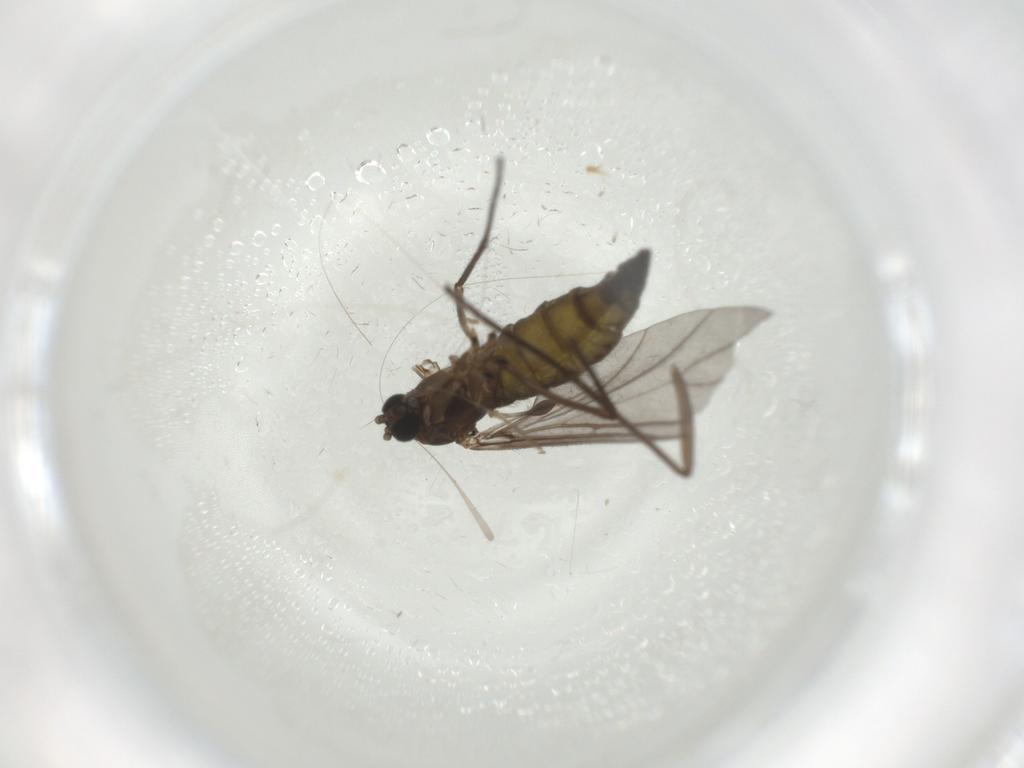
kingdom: Animalia
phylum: Arthropoda
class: Insecta
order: Diptera
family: Sciaridae
